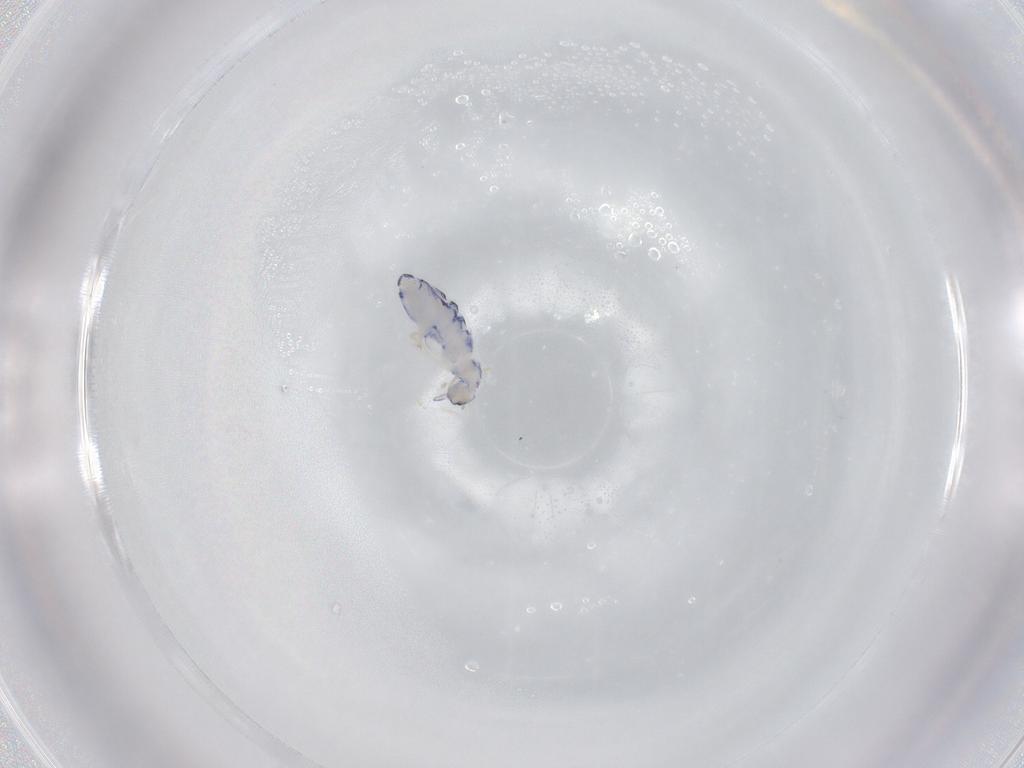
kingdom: Animalia
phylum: Arthropoda
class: Collembola
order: Entomobryomorpha
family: Entomobryidae
